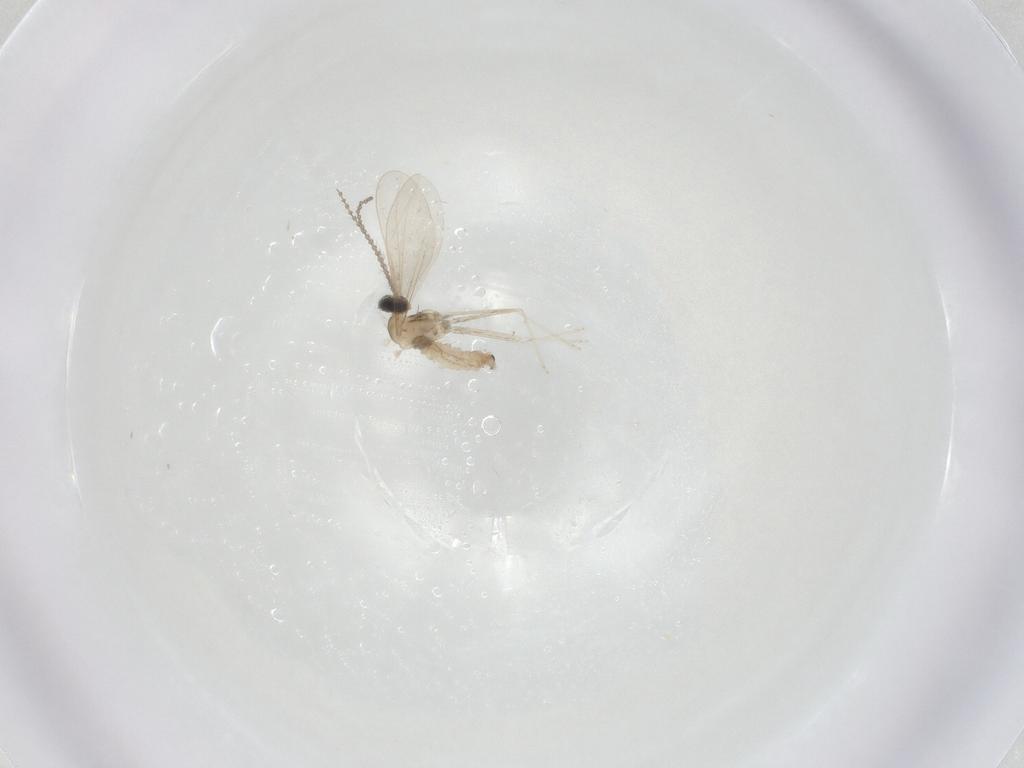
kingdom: Animalia
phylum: Arthropoda
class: Insecta
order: Diptera
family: Cecidomyiidae
